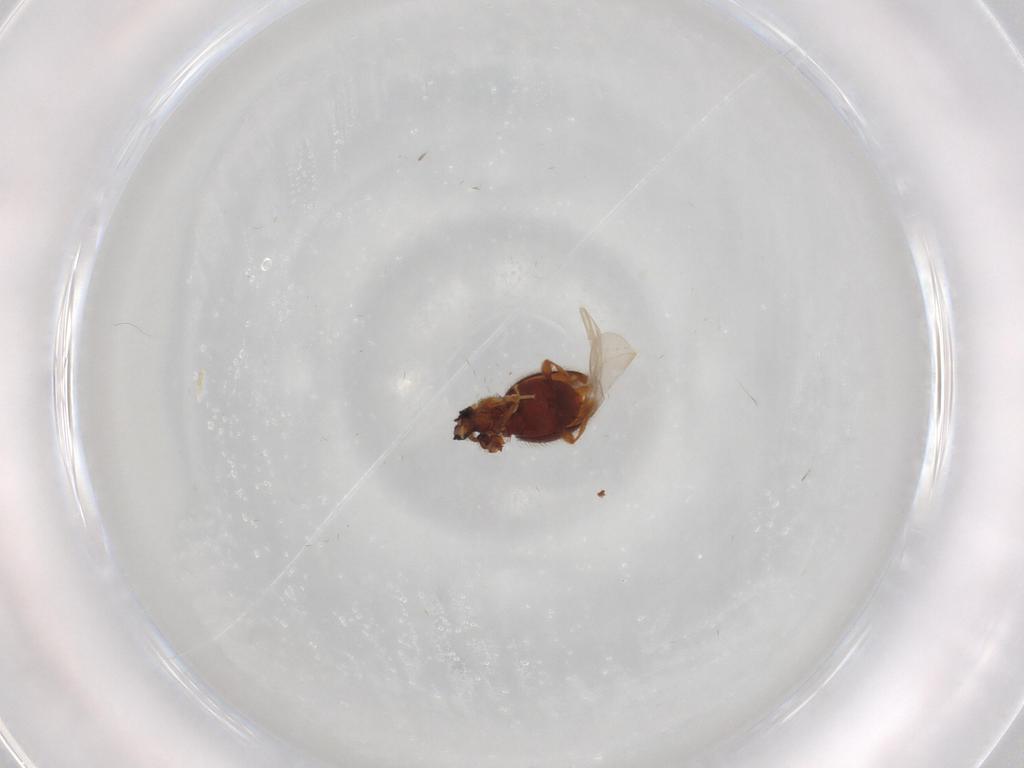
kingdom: Animalia
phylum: Arthropoda
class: Insecta
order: Coleoptera
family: Staphylinidae
